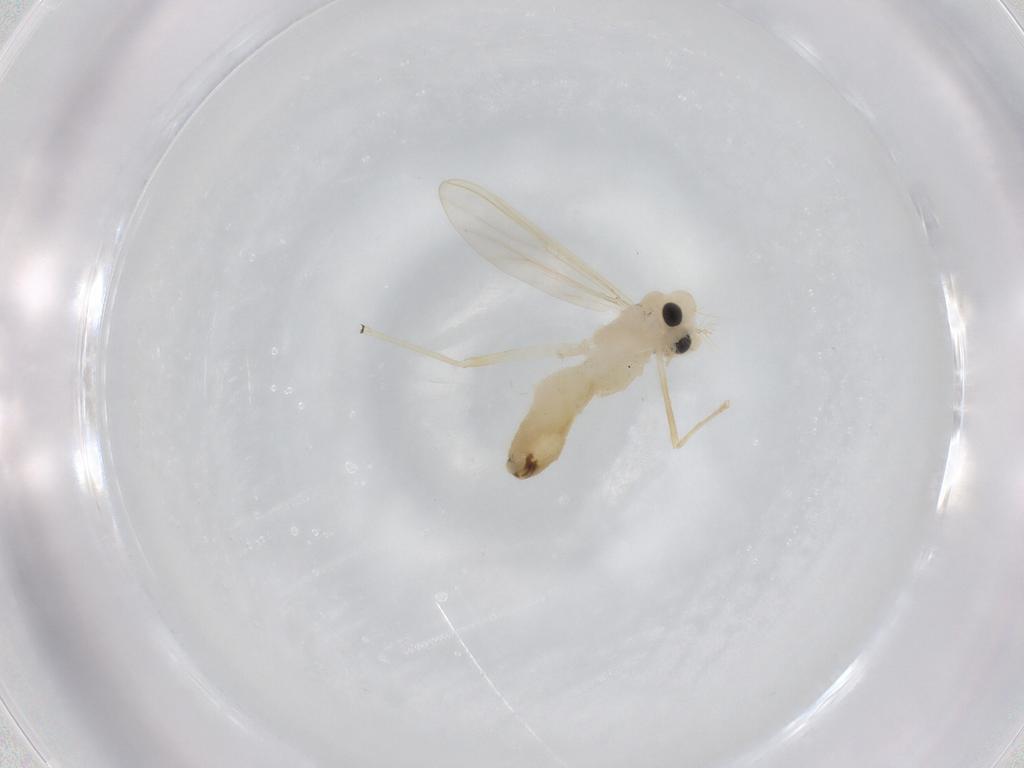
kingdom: Animalia
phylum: Arthropoda
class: Insecta
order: Diptera
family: Chironomidae
